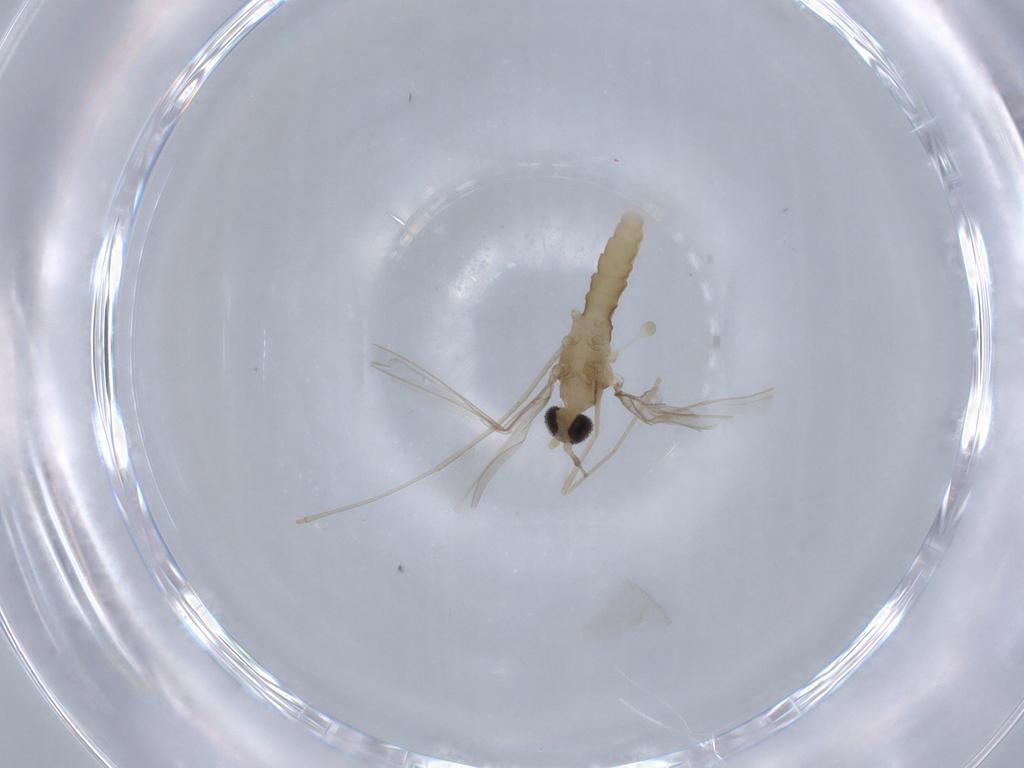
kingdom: Animalia
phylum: Arthropoda
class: Insecta
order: Diptera
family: Cecidomyiidae
